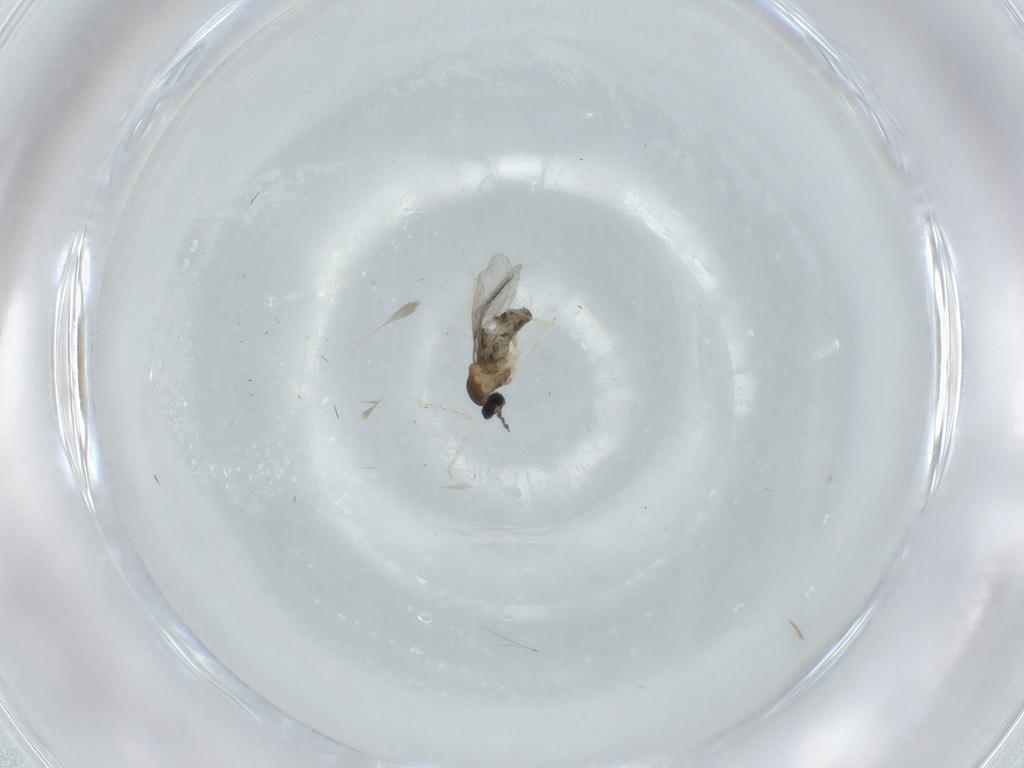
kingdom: Animalia
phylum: Arthropoda
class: Insecta
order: Diptera
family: Cecidomyiidae
